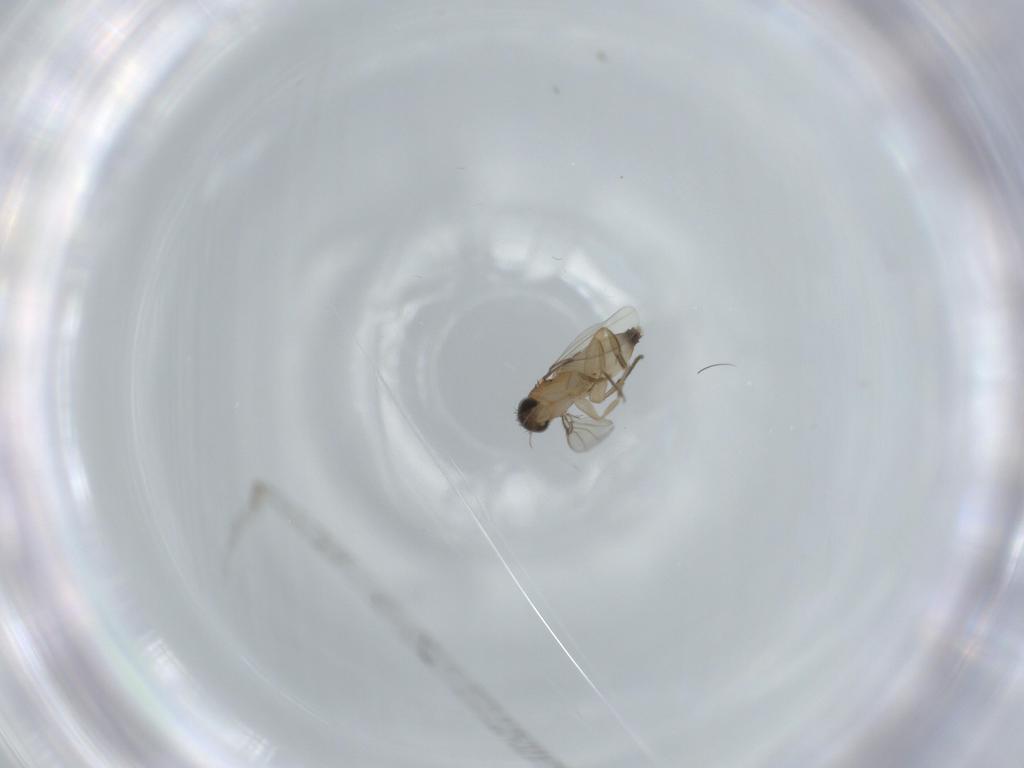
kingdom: Animalia
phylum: Arthropoda
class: Insecta
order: Diptera
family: Phoridae
